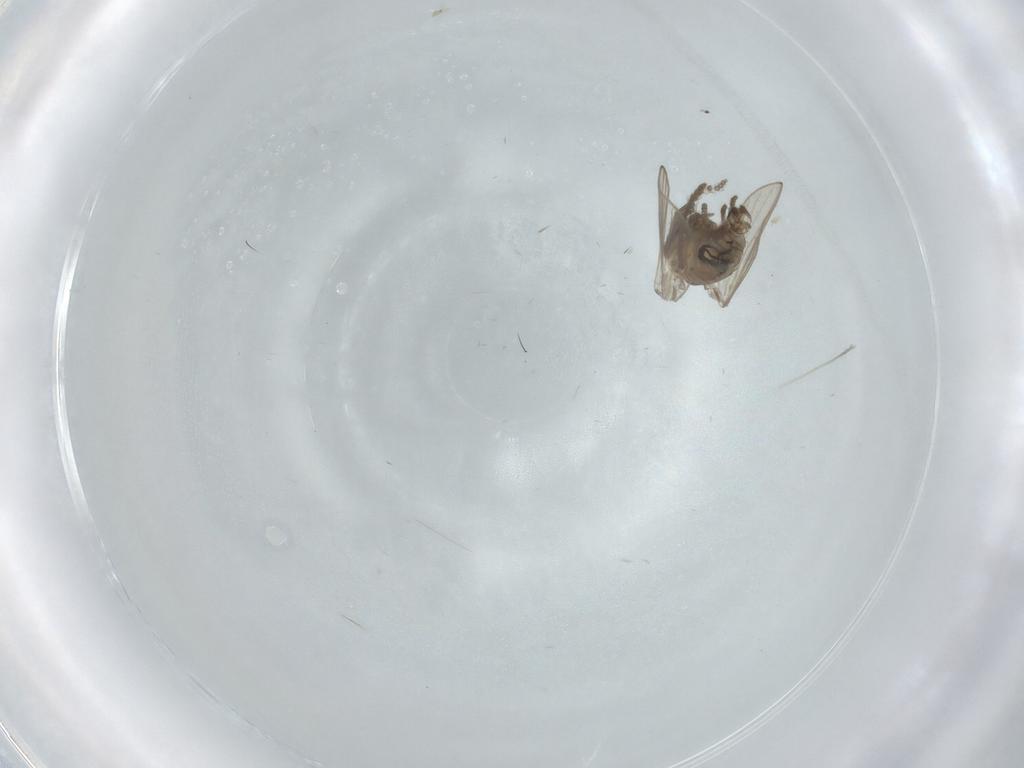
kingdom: Animalia
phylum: Arthropoda
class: Insecta
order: Diptera
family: Psychodidae
